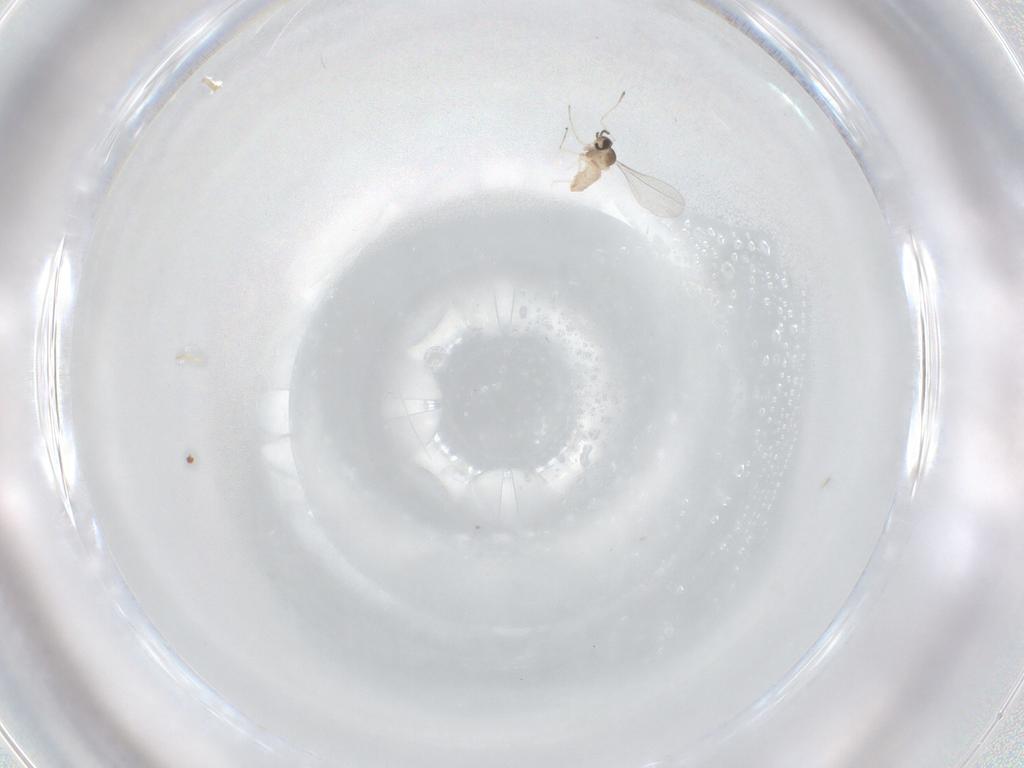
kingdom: Animalia
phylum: Arthropoda
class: Insecta
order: Diptera
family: Cecidomyiidae
